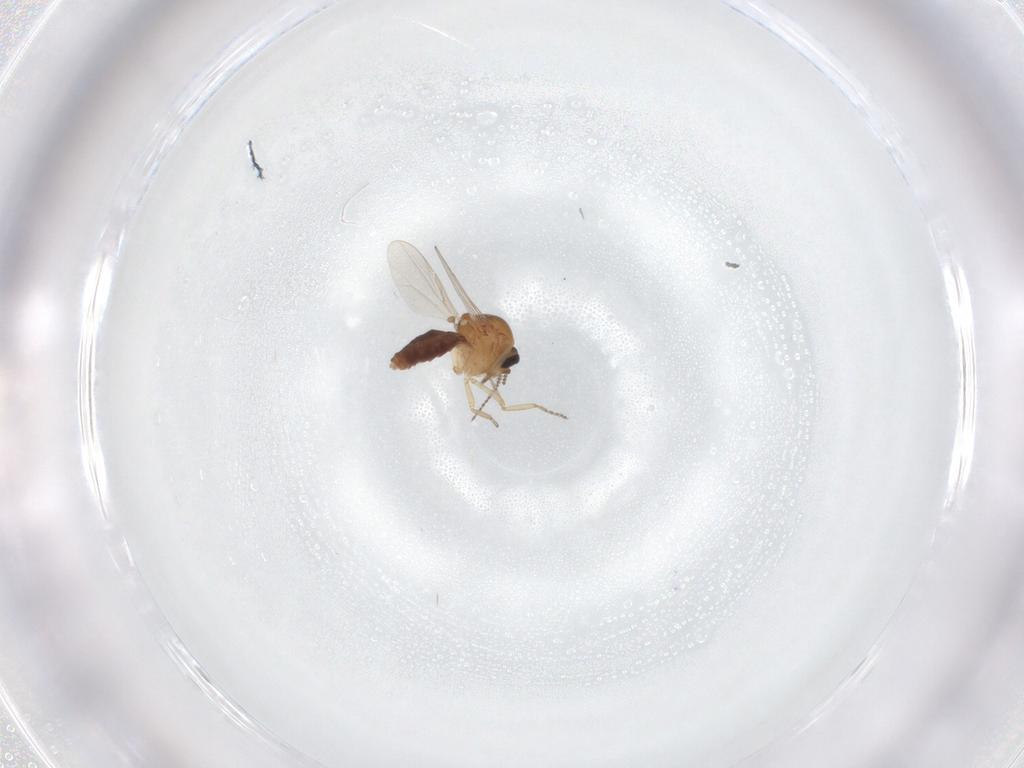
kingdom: Animalia
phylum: Arthropoda
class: Insecta
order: Diptera
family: Ceratopogonidae
